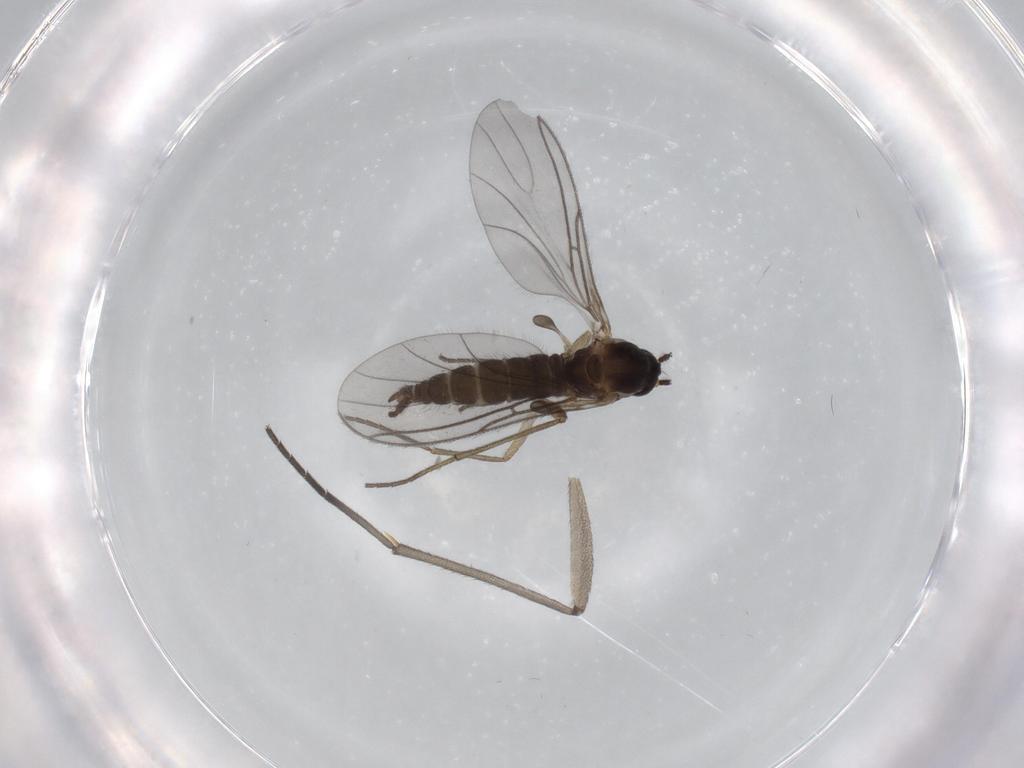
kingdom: Animalia
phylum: Arthropoda
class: Insecta
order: Diptera
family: Sciaridae
